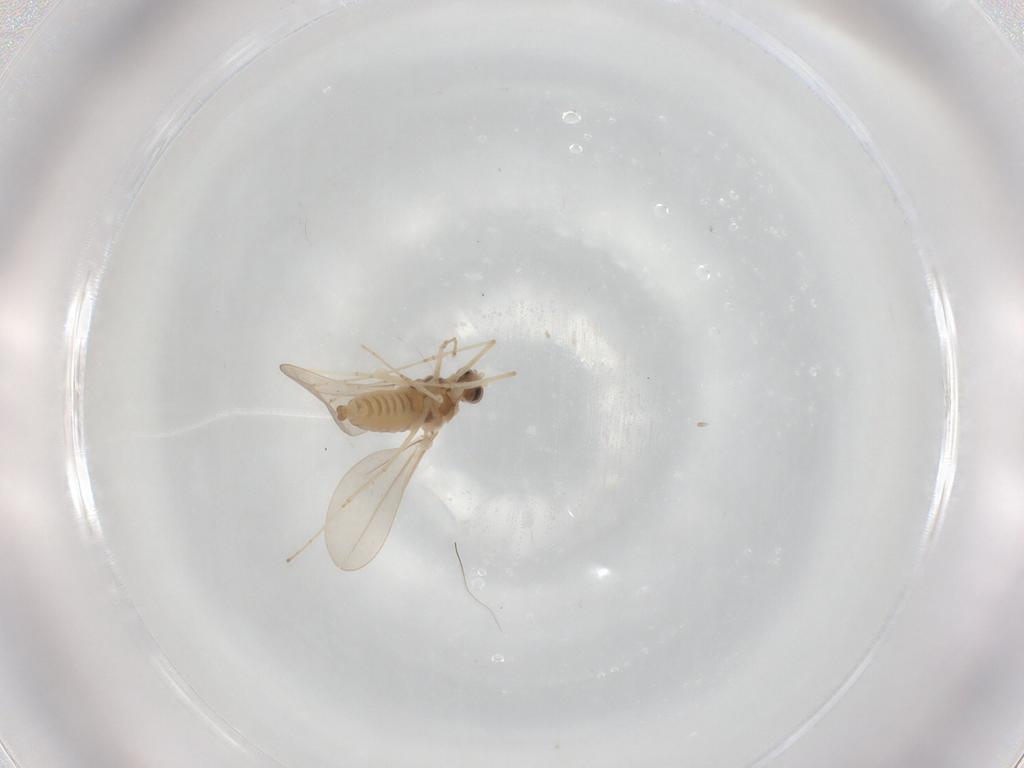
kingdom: Animalia
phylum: Arthropoda
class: Insecta
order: Diptera
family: Cecidomyiidae
